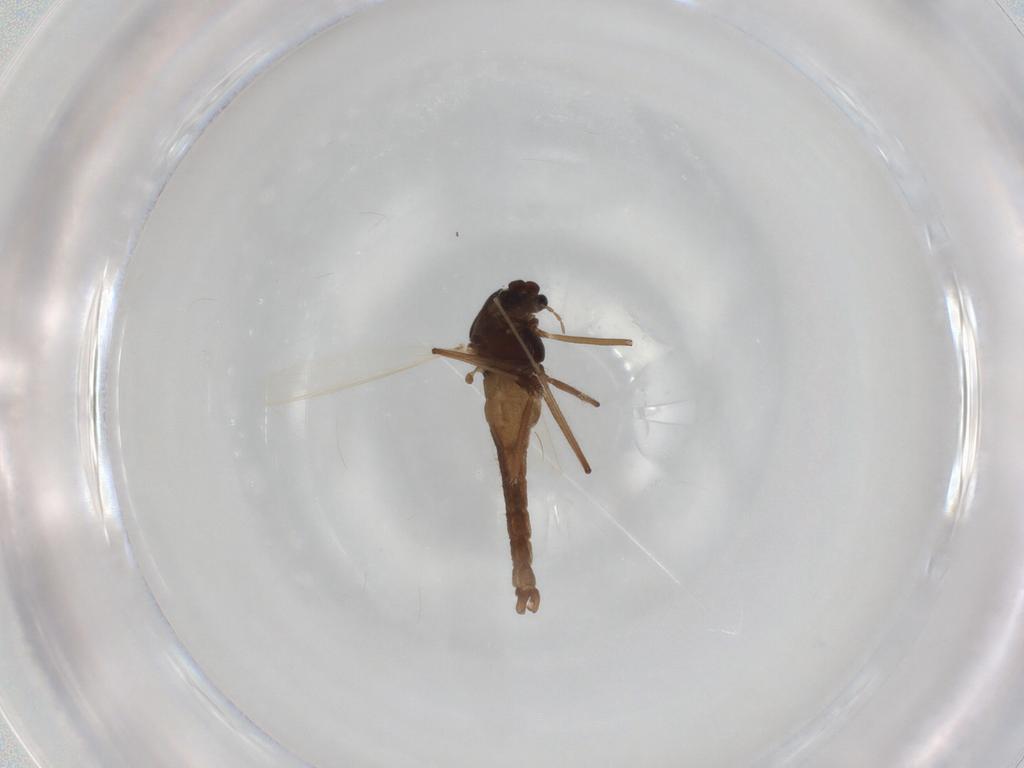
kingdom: Animalia
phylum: Arthropoda
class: Insecta
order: Diptera
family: Chironomidae
